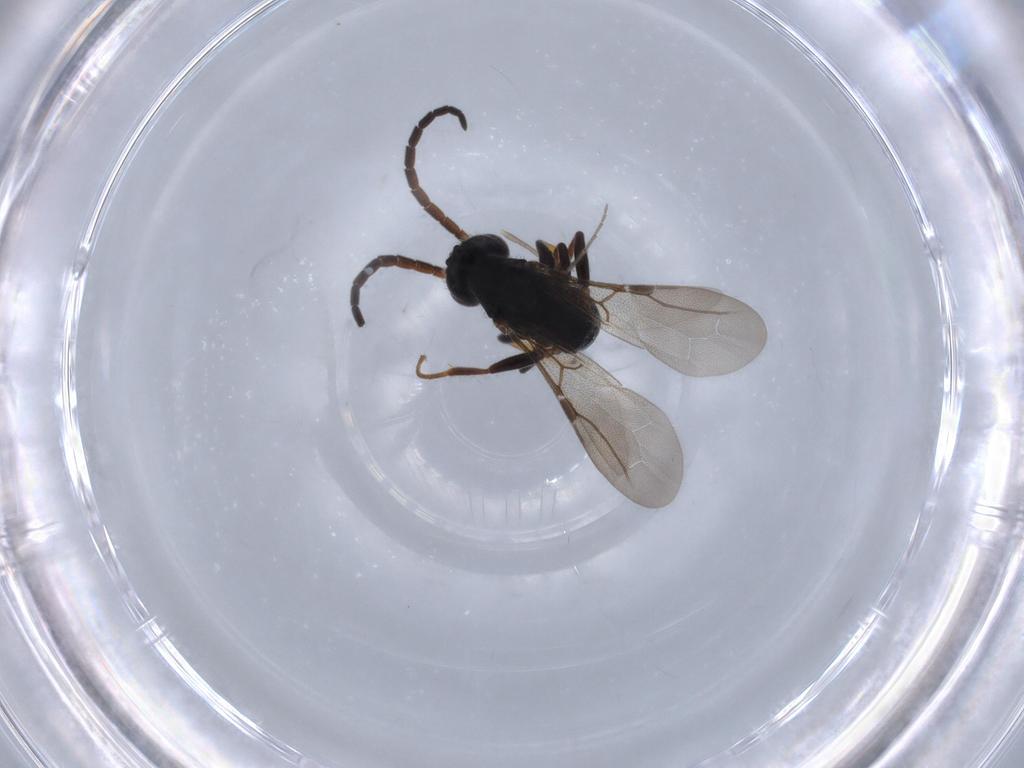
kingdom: Animalia
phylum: Arthropoda
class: Insecta
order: Hymenoptera
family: Bethylidae
